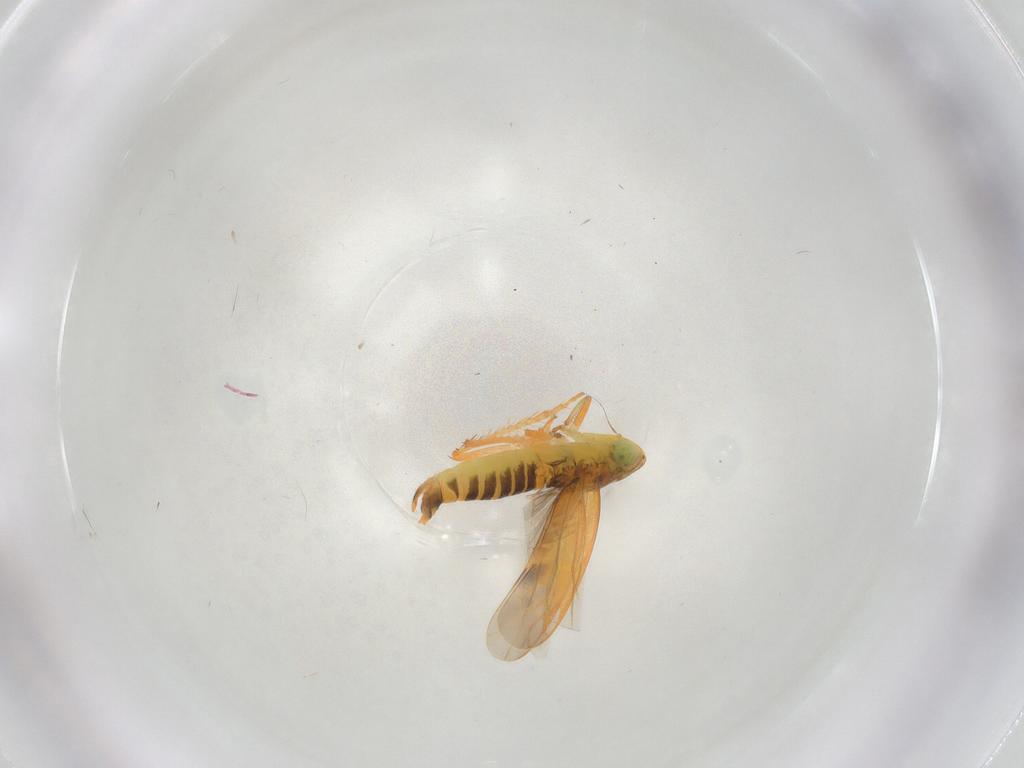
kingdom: Animalia
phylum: Arthropoda
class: Insecta
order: Hemiptera
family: Cicadellidae
